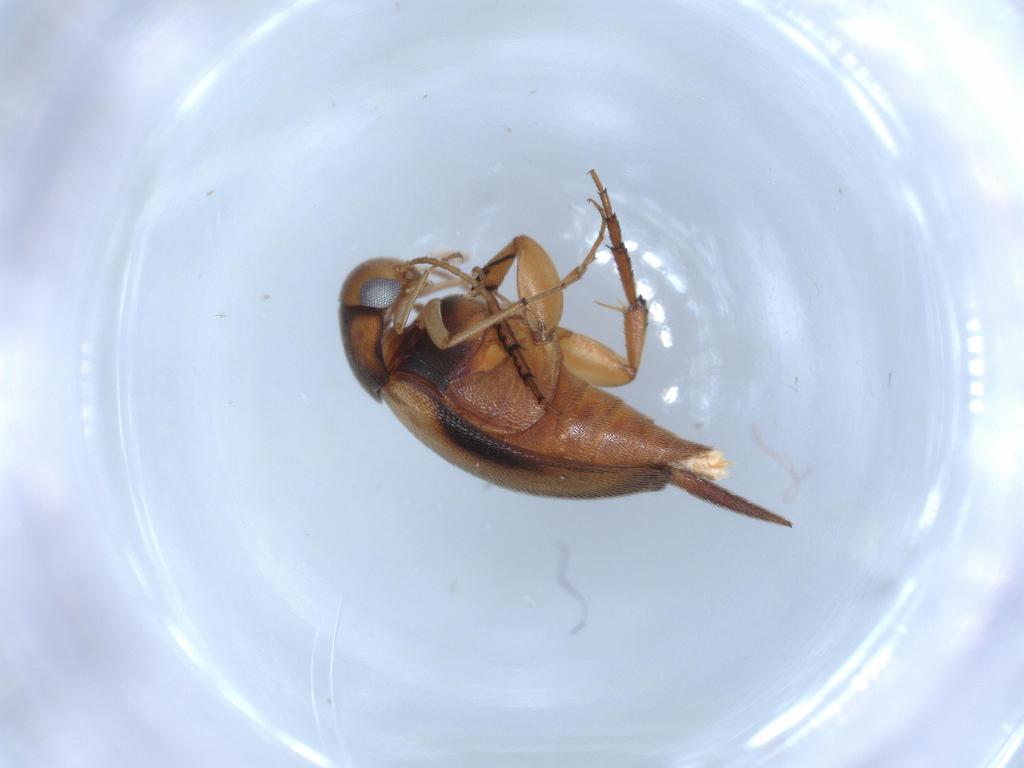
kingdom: Animalia
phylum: Arthropoda
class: Insecta
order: Coleoptera
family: Mordellidae
